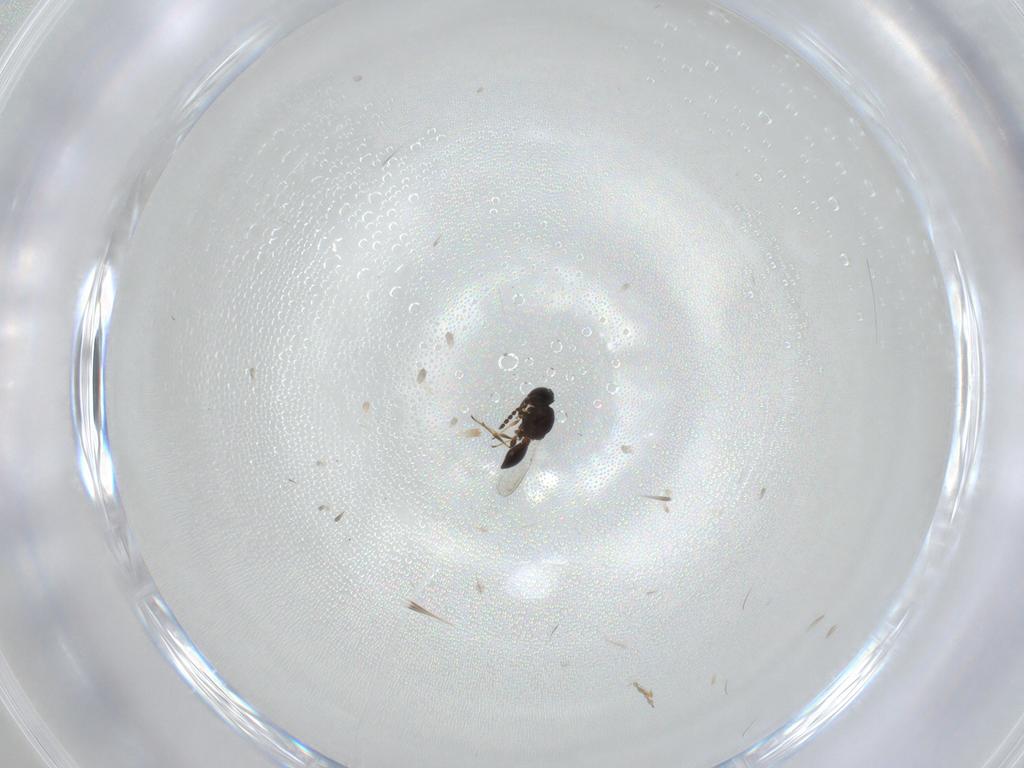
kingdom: Animalia
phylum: Arthropoda
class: Insecta
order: Hymenoptera
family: Platygastridae
